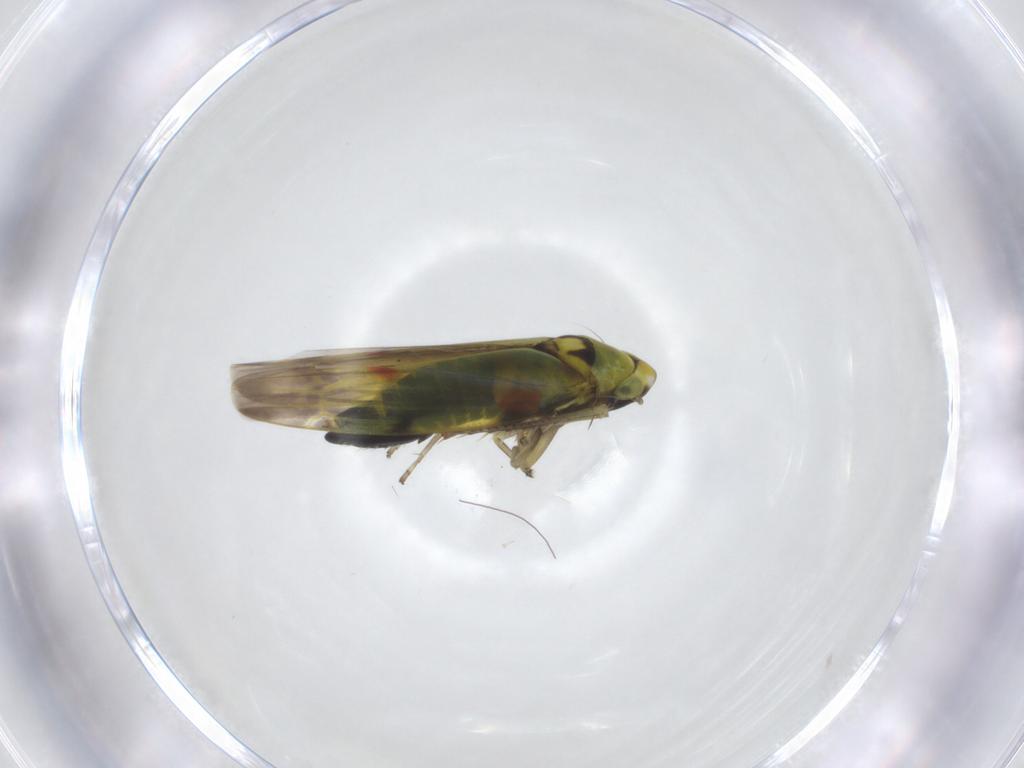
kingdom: Animalia
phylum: Arthropoda
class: Insecta
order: Hemiptera
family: Cicadellidae
